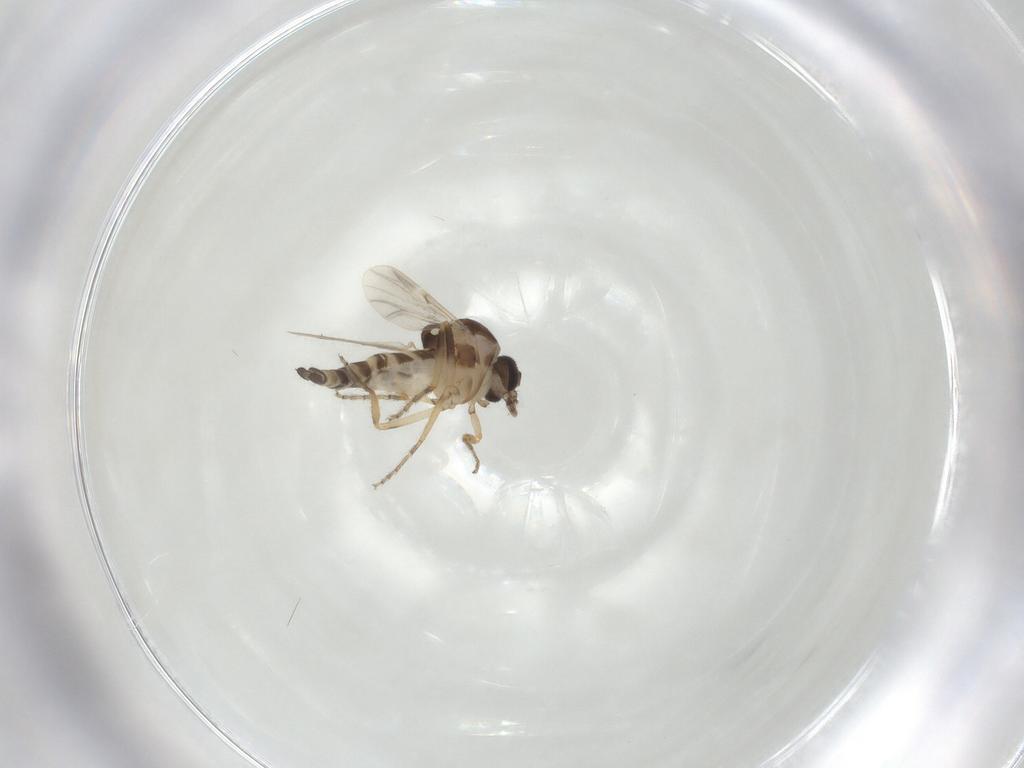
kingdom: Animalia
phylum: Arthropoda
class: Insecta
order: Diptera
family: Ceratopogonidae
